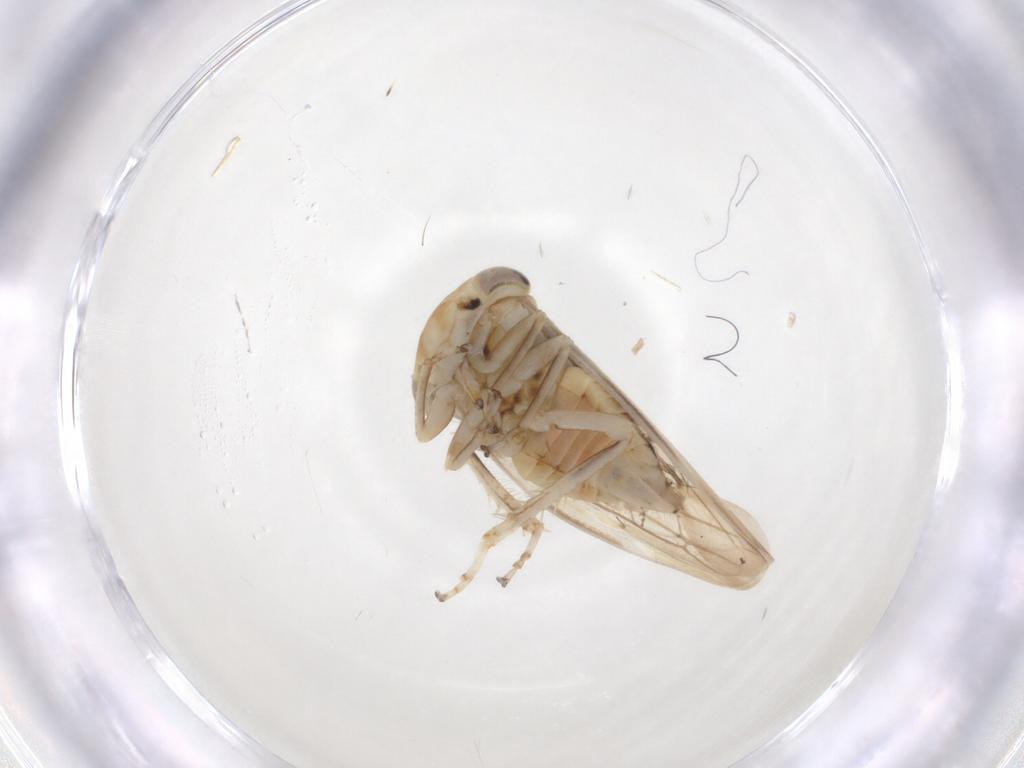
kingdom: Animalia
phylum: Arthropoda
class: Insecta
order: Hemiptera
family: Cicadellidae
